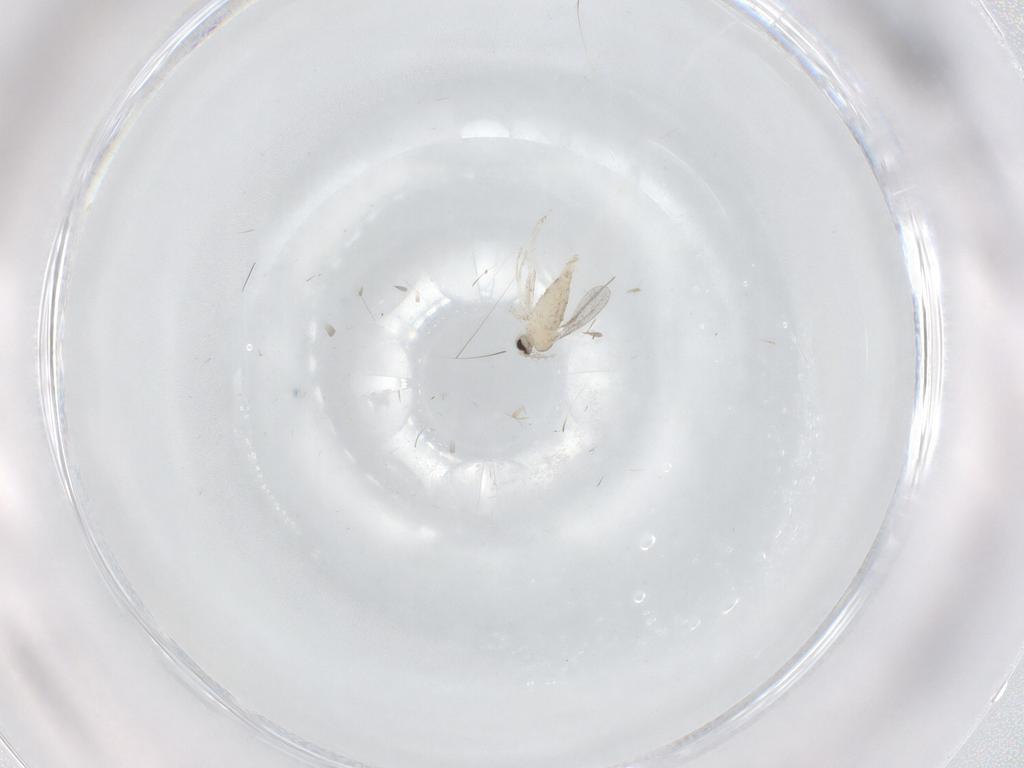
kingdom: Animalia
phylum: Arthropoda
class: Insecta
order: Diptera
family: Cecidomyiidae
